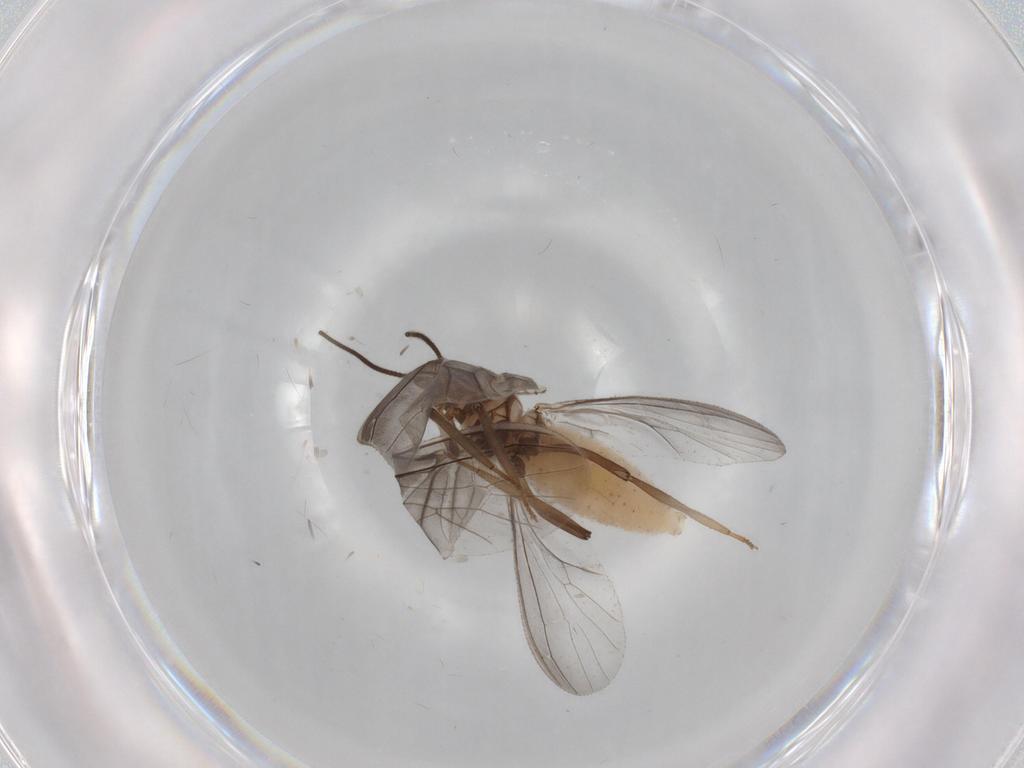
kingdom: Animalia
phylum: Arthropoda
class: Insecta
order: Neuroptera
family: Coniopterygidae
